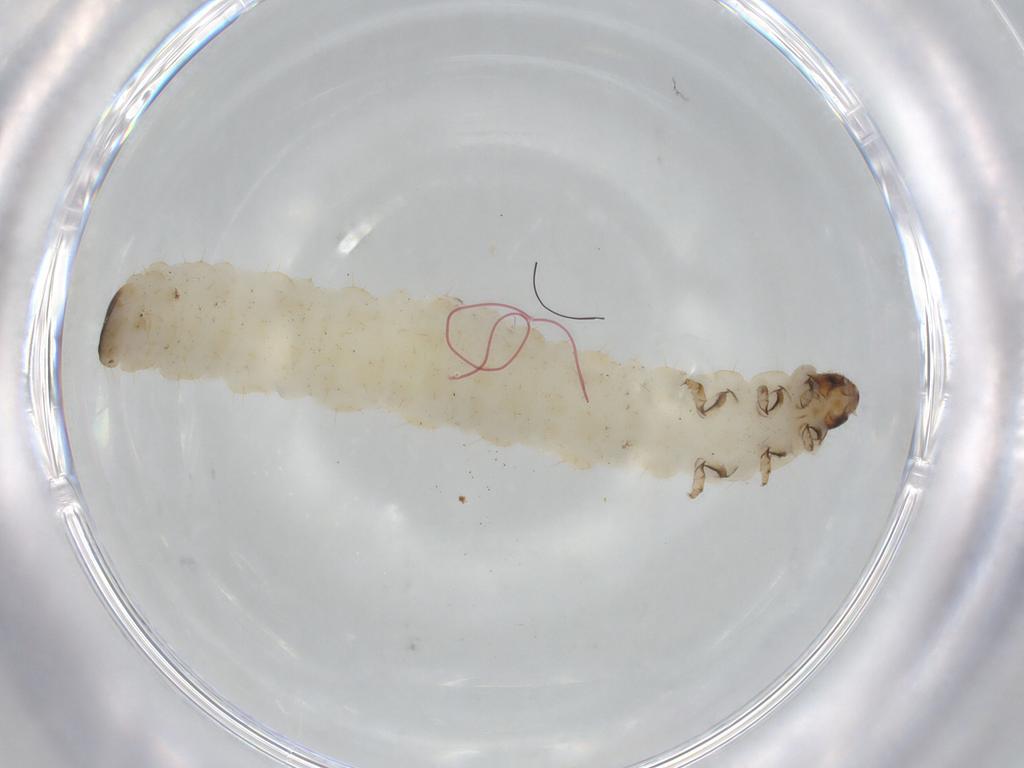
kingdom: Animalia
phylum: Arthropoda
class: Insecta
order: Coleoptera
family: Chrysomelidae
